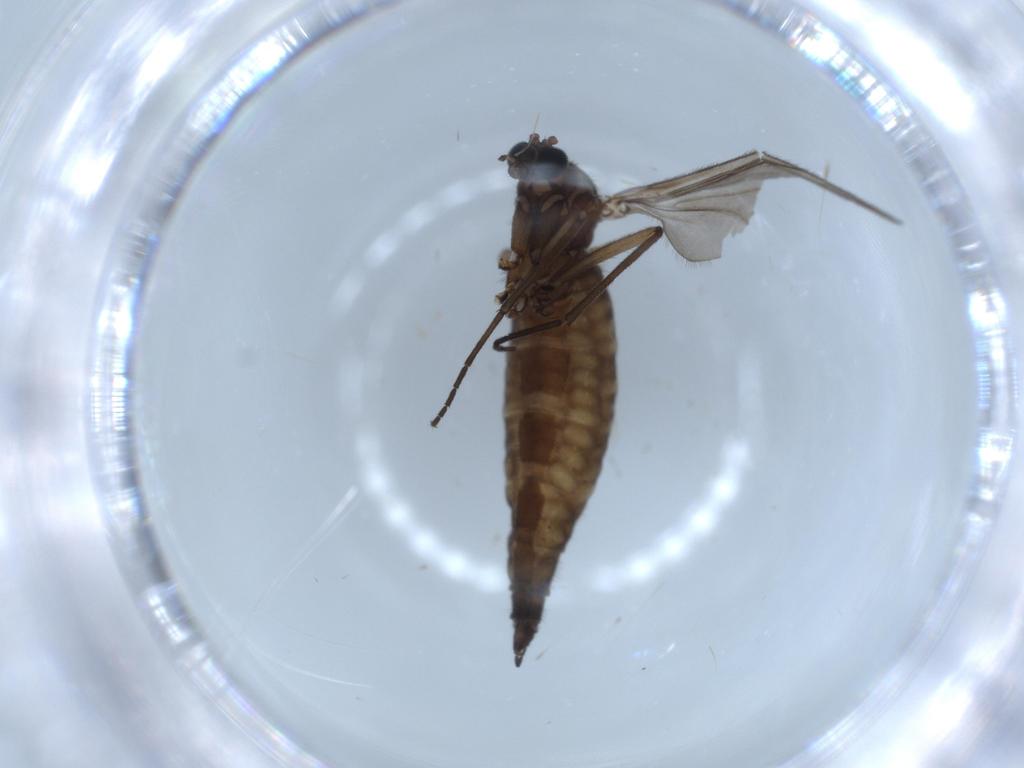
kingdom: Animalia
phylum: Arthropoda
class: Insecta
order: Diptera
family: Sciaridae
